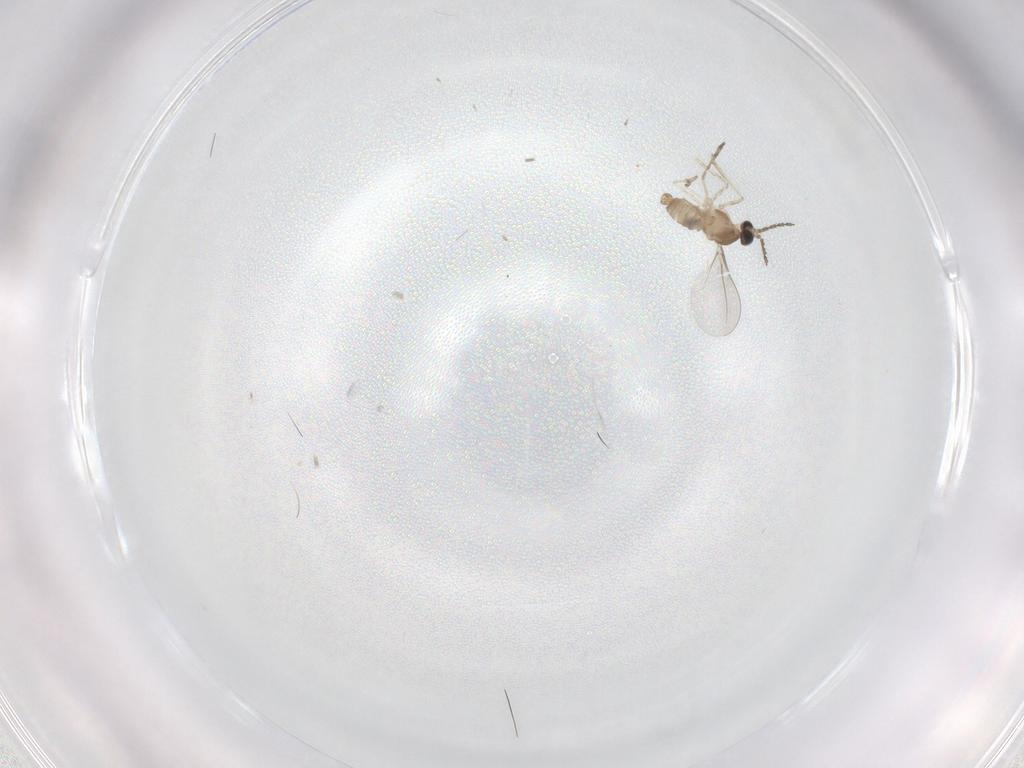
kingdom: Animalia
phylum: Arthropoda
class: Insecta
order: Diptera
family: Cecidomyiidae
